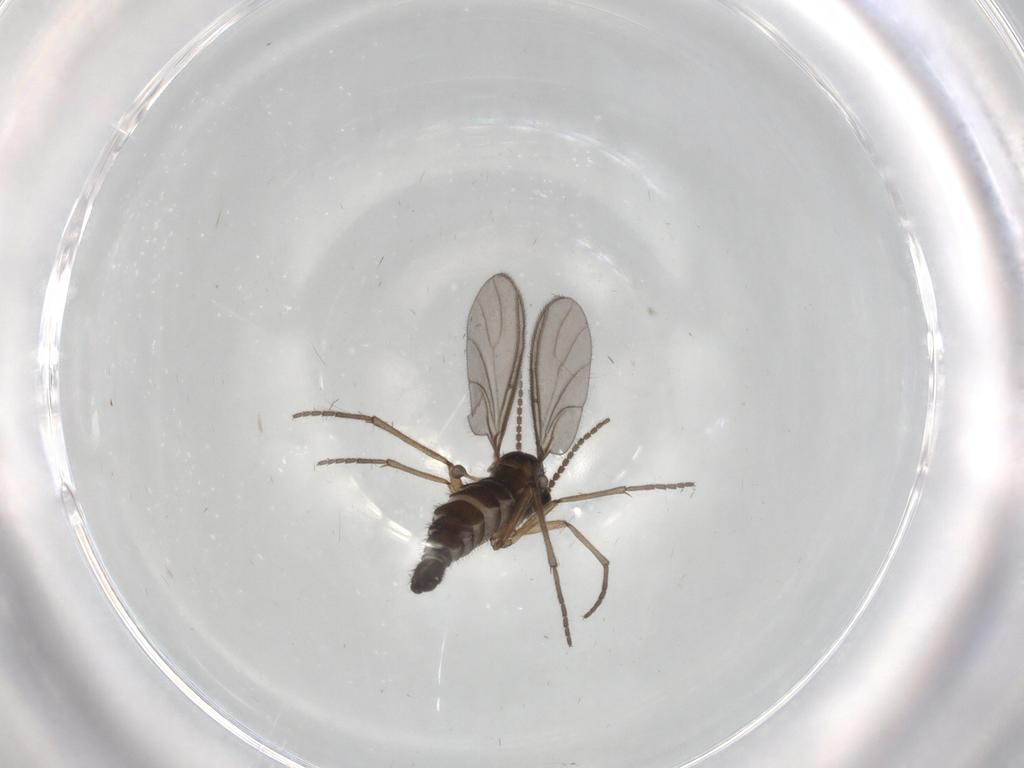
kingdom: Animalia
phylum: Arthropoda
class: Insecta
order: Diptera
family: Sciaridae
